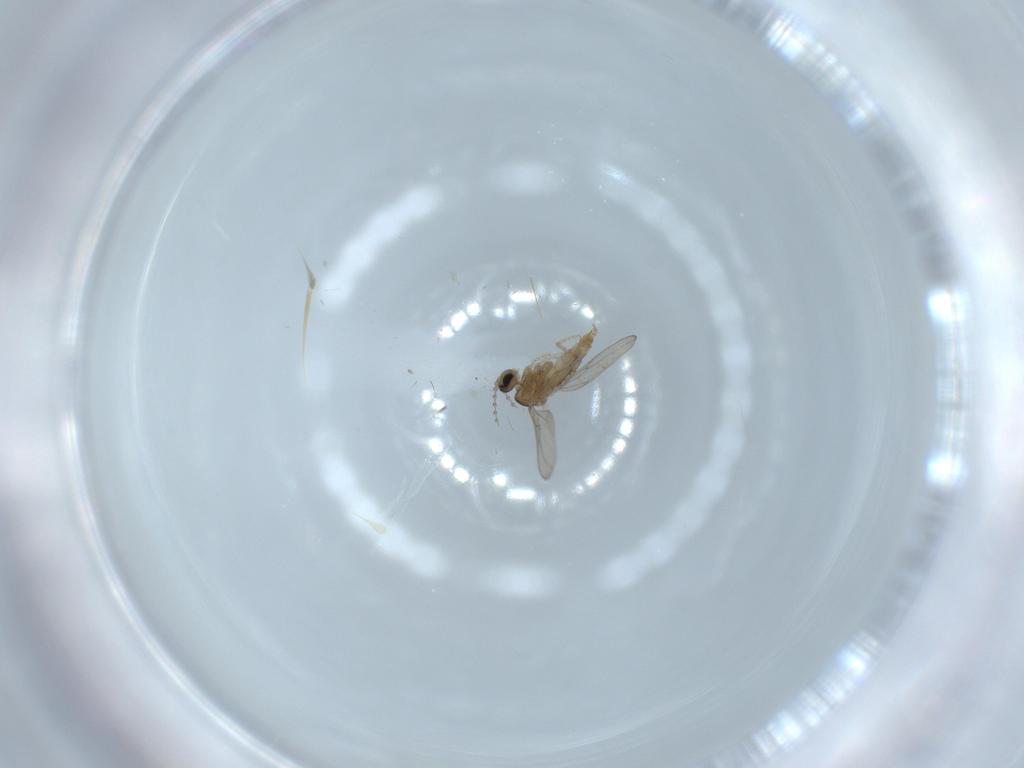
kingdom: Animalia
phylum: Arthropoda
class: Insecta
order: Diptera
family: Cecidomyiidae
